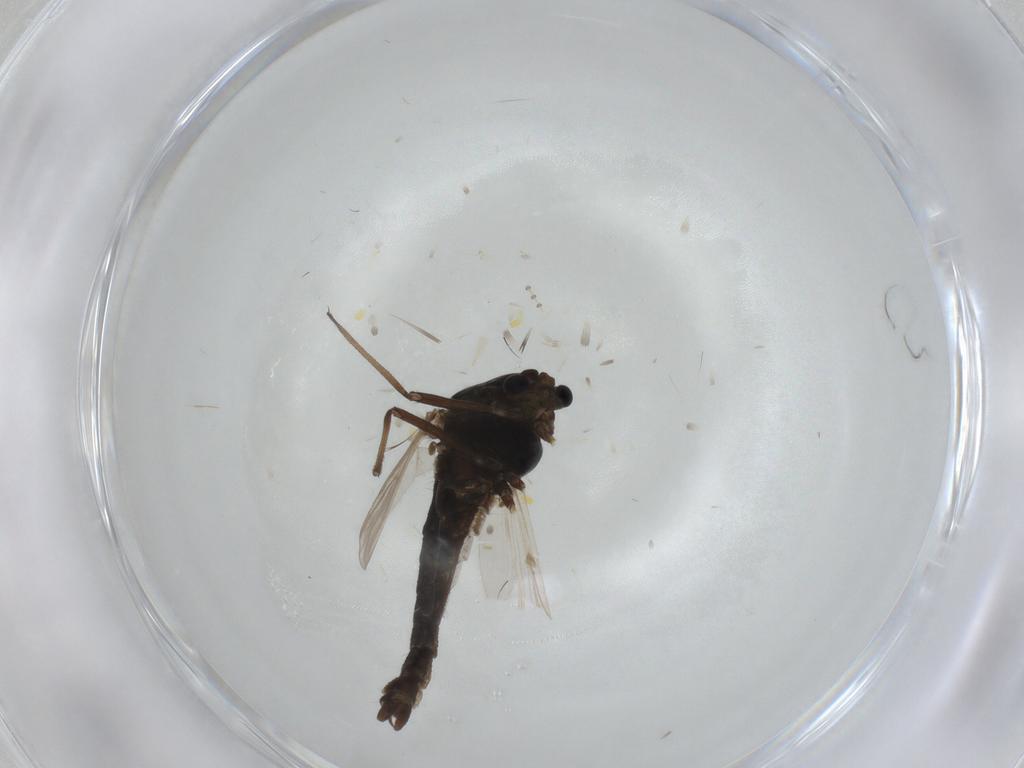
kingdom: Animalia
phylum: Arthropoda
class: Insecta
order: Diptera
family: Chironomidae
